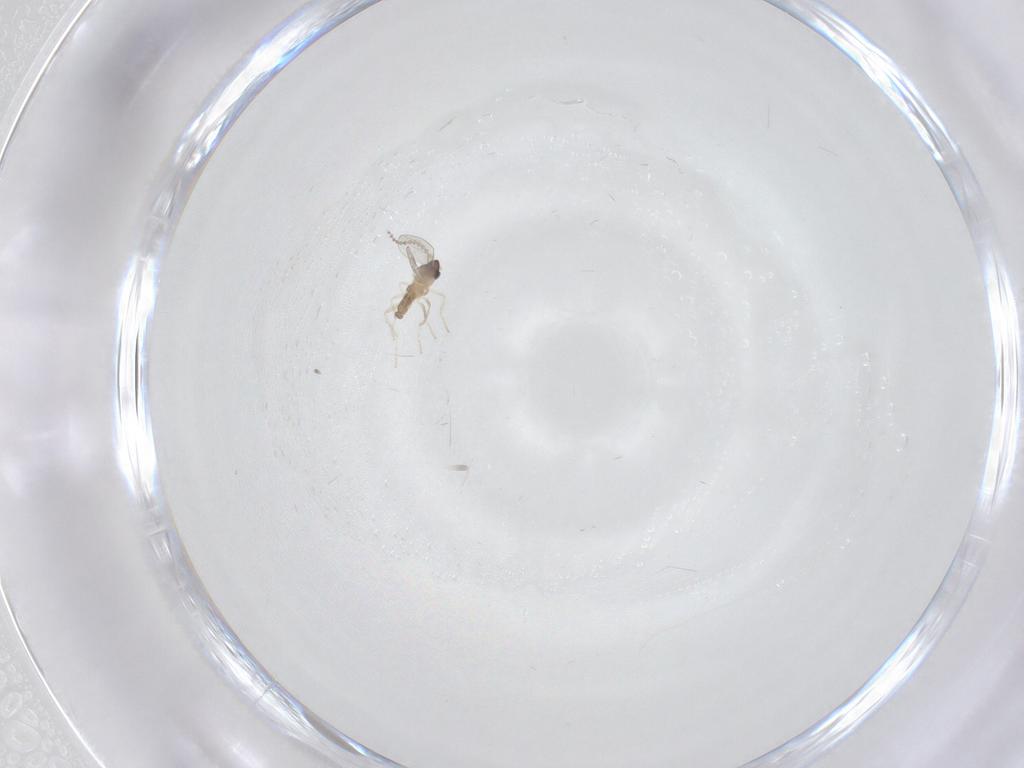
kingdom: Animalia
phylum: Arthropoda
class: Insecta
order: Diptera
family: Cecidomyiidae
